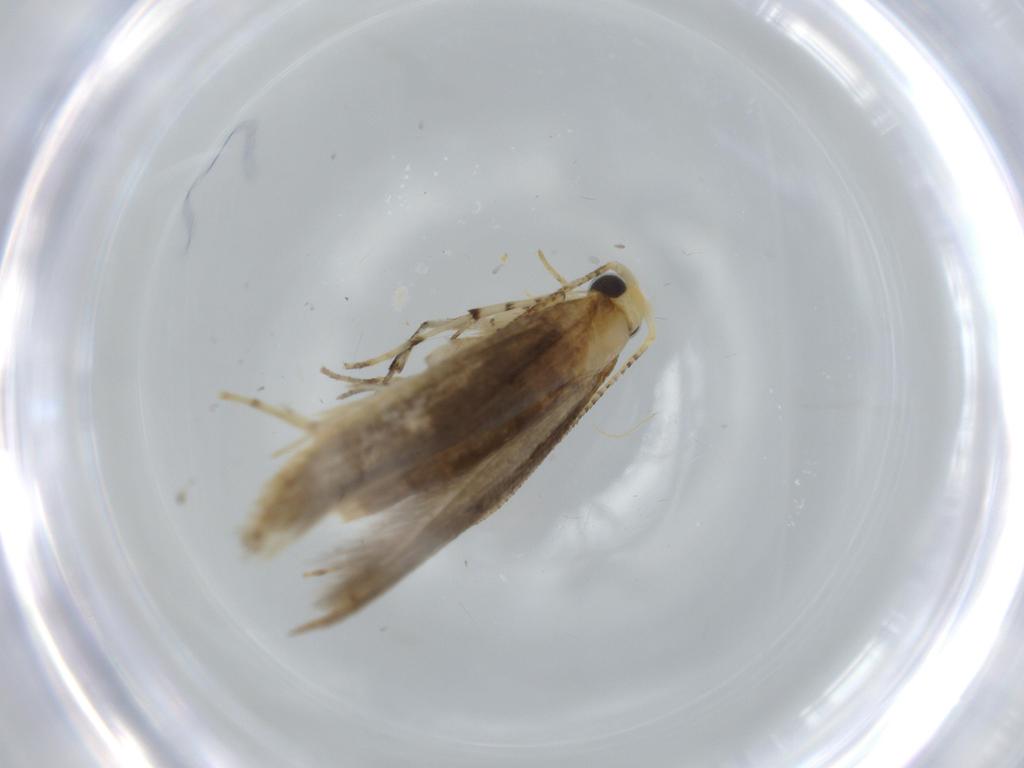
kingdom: Animalia
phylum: Arthropoda
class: Insecta
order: Lepidoptera
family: Argyresthiidae
